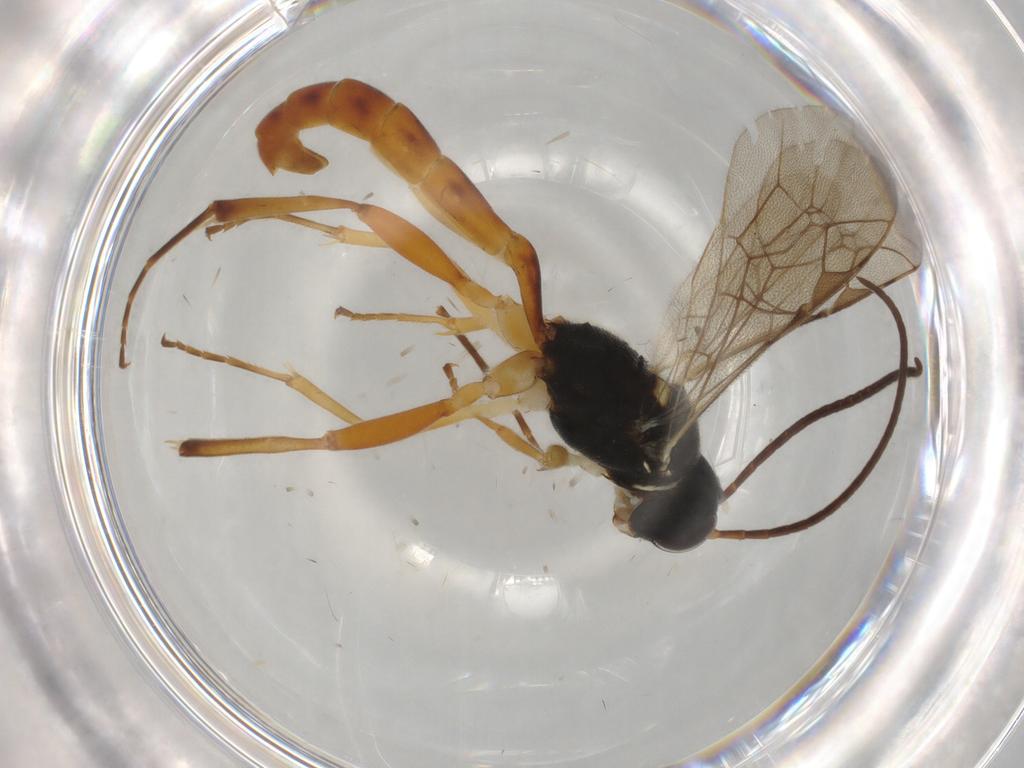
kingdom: Animalia
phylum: Arthropoda
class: Insecta
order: Hymenoptera
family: Ichneumonidae
